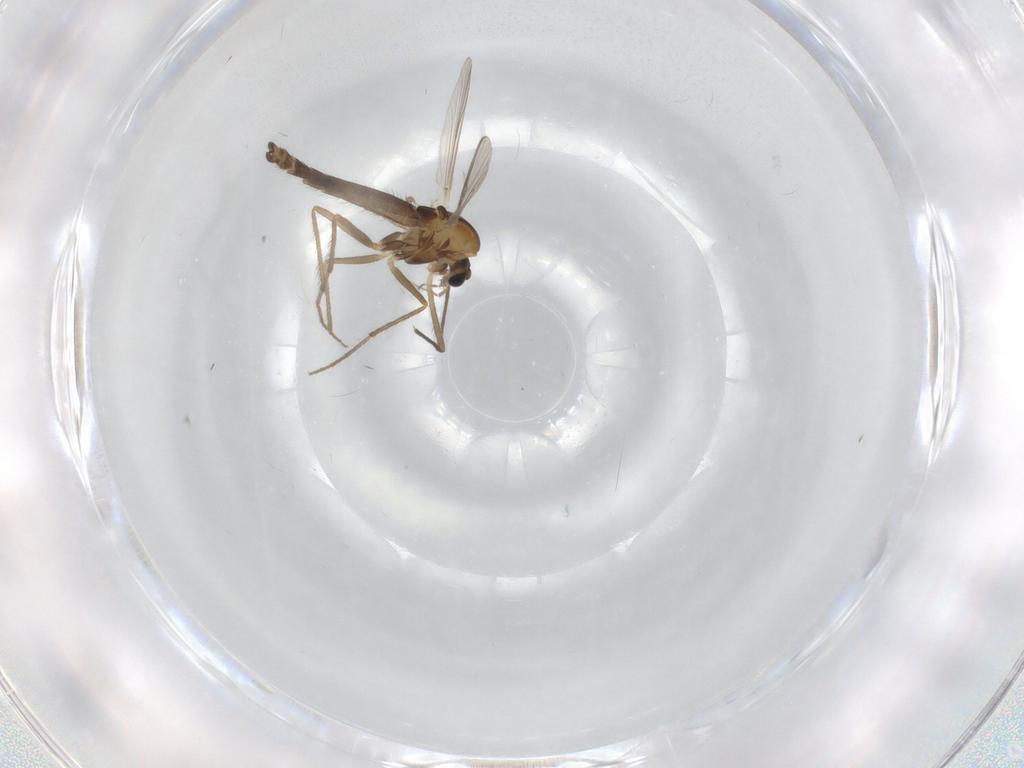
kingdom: Animalia
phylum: Arthropoda
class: Insecta
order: Diptera
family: Chironomidae
